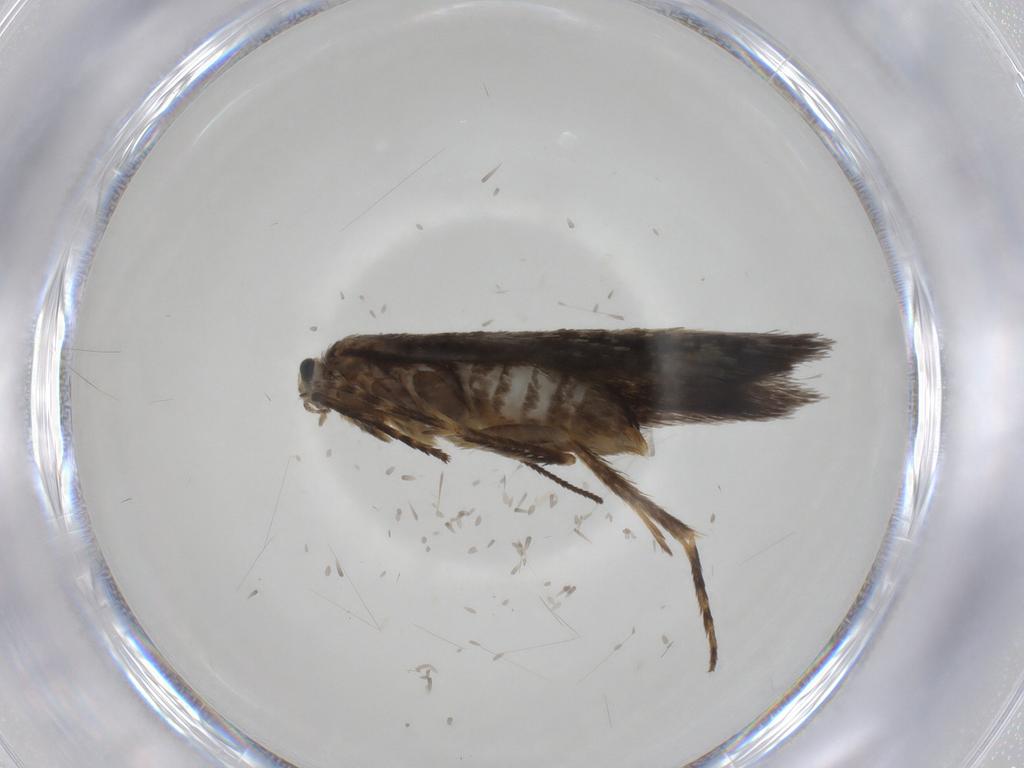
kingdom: Animalia
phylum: Arthropoda
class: Insecta
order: Lepidoptera
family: Nepticulidae
